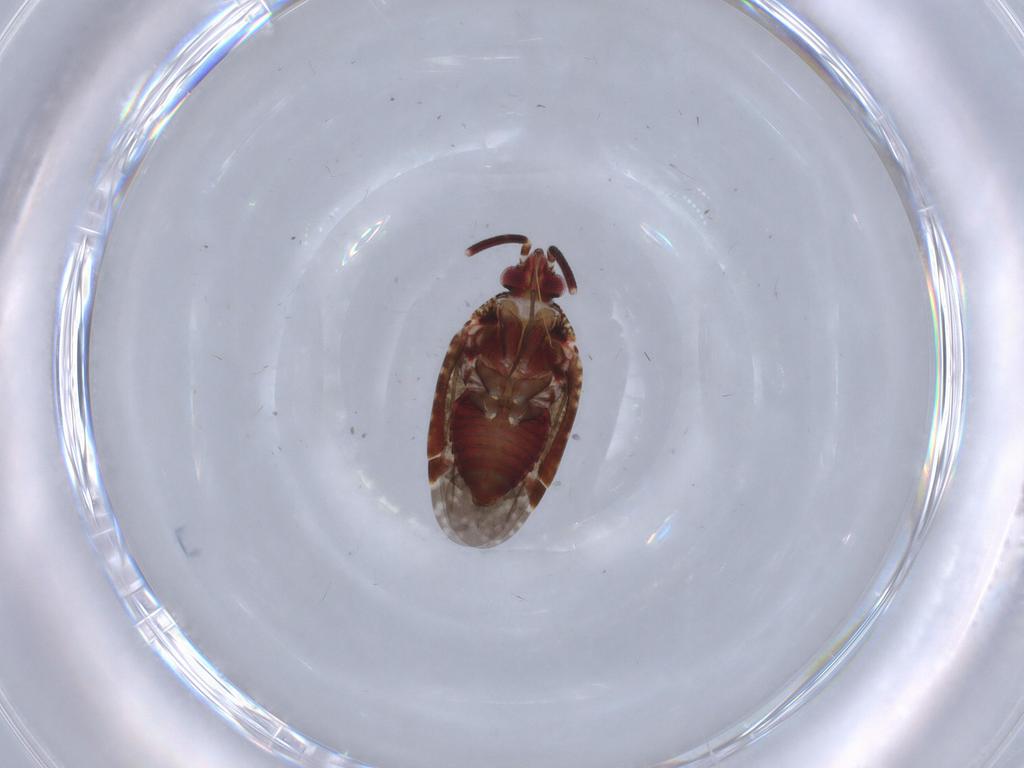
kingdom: Animalia
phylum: Arthropoda
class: Insecta
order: Hemiptera
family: Miridae
